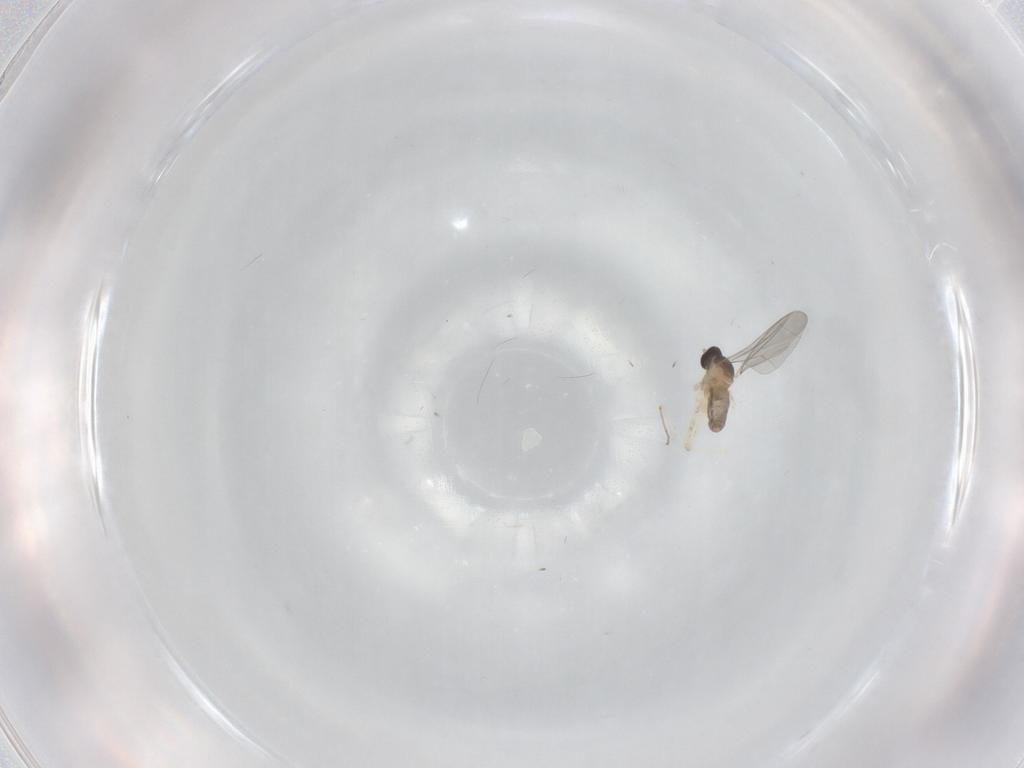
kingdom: Animalia
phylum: Arthropoda
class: Insecta
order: Diptera
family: Cecidomyiidae
